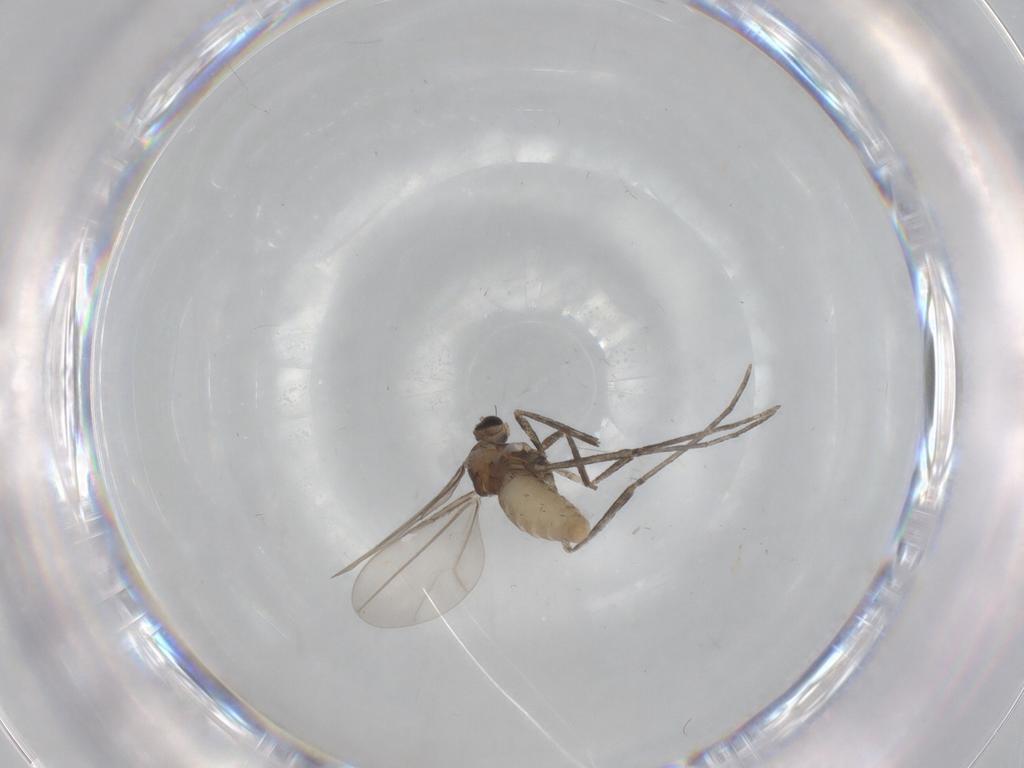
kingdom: Animalia
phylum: Arthropoda
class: Insecta
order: Diptera
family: Cecidomyiidae
